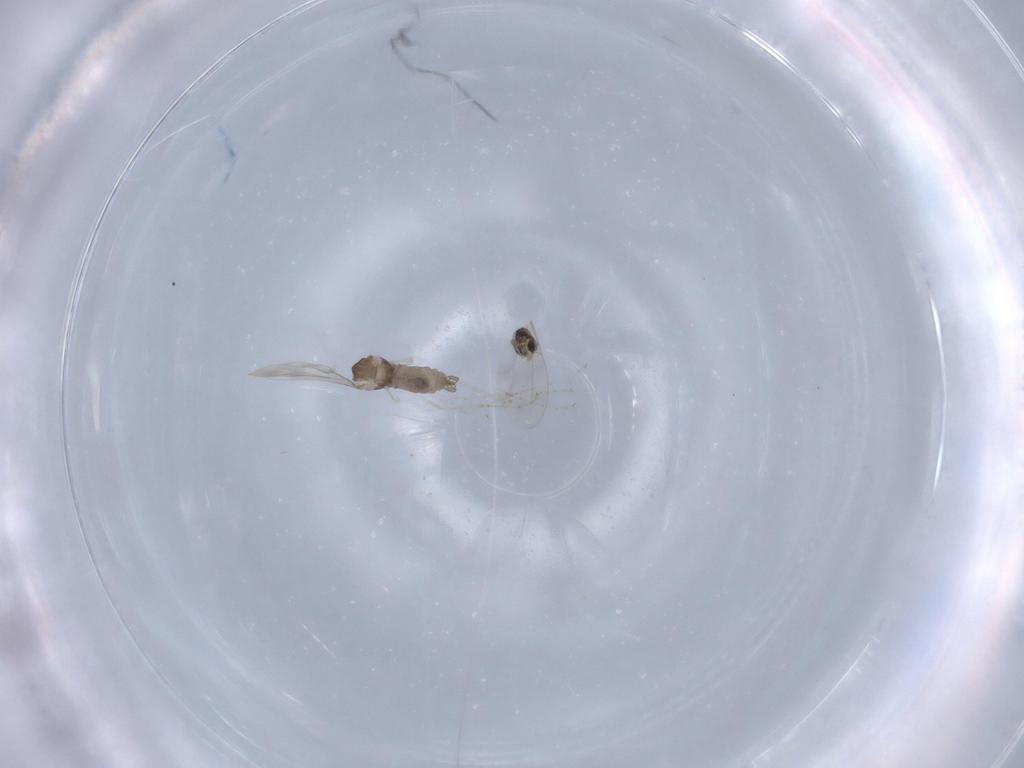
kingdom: Animalia
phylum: Arthropoda
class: Insecta
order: Diptera
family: Cecidomyiidae
